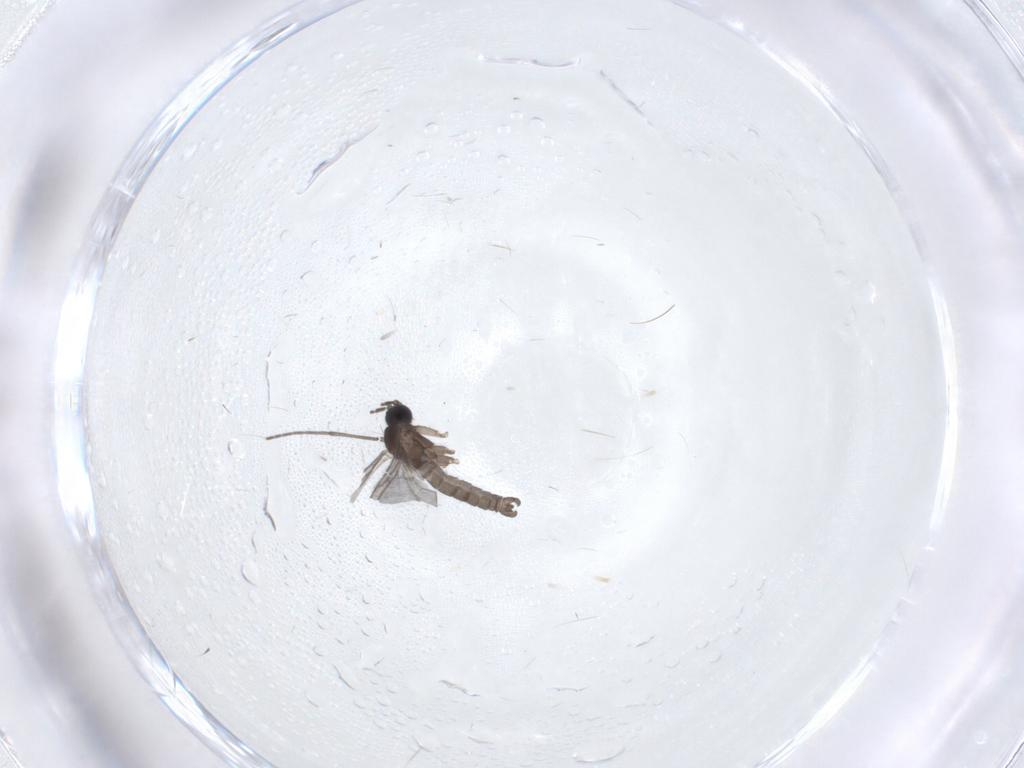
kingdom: Animalia
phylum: Arthropoda
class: Insecta
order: Diptera
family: Sciaridae
